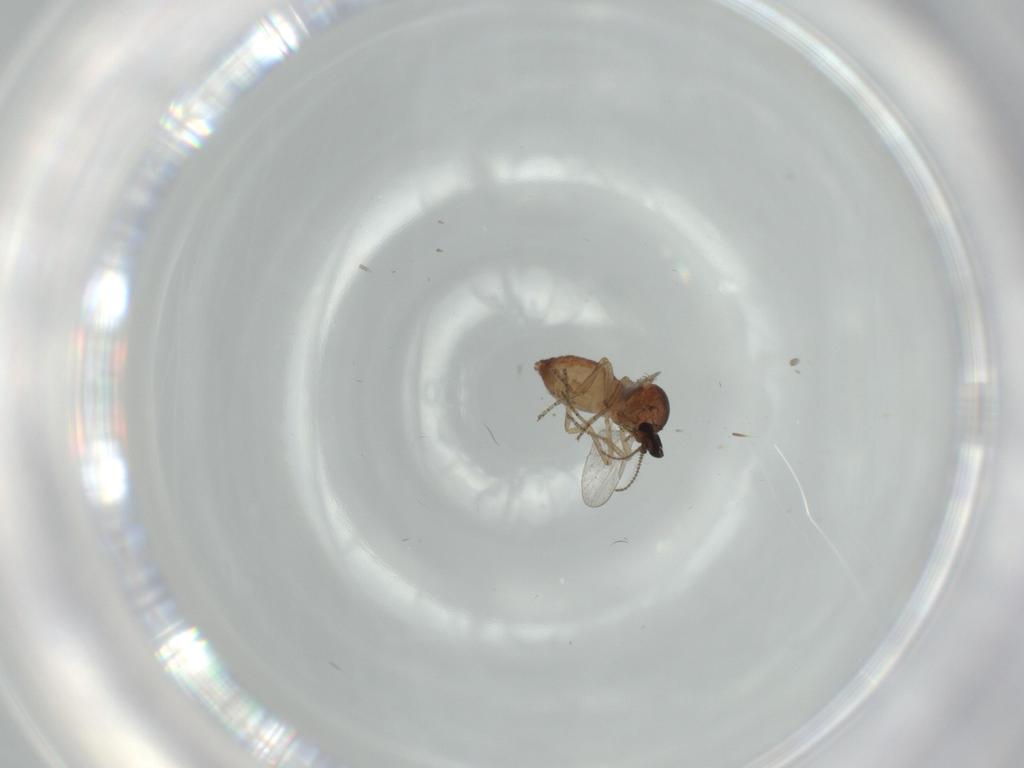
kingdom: Animalia
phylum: Arthropoda
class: Insecta
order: Diptera
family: Ceratopogonidae
